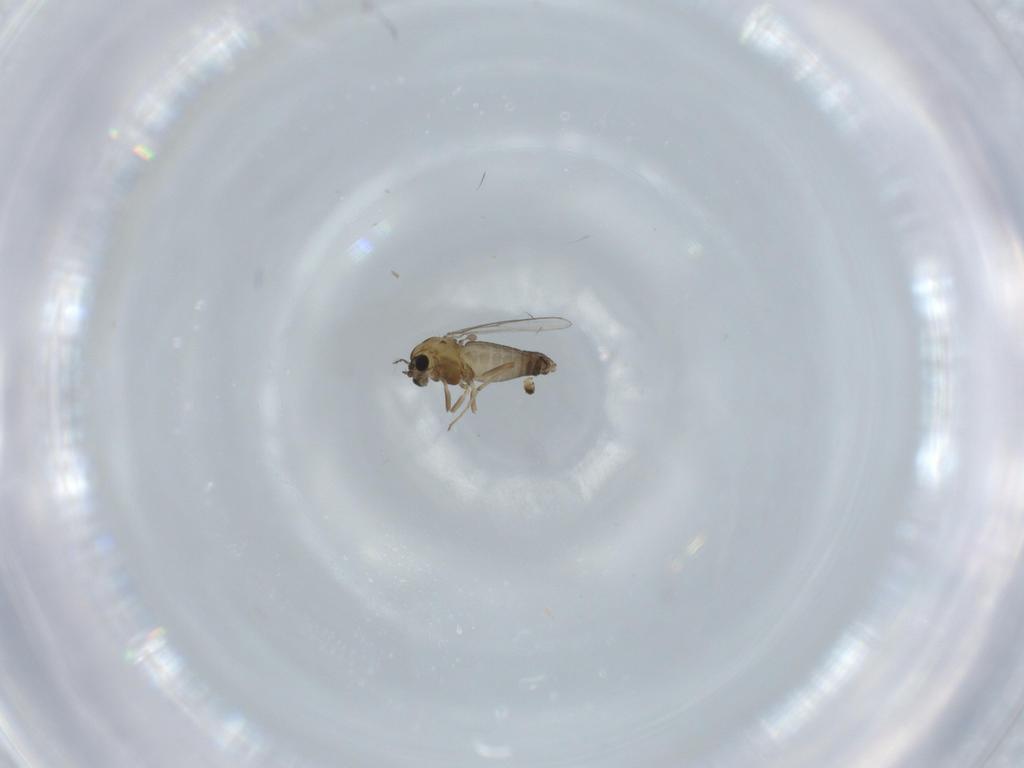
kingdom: Animalia
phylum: Arthropoda
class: Insecta
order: Diptera
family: Chironomidae
